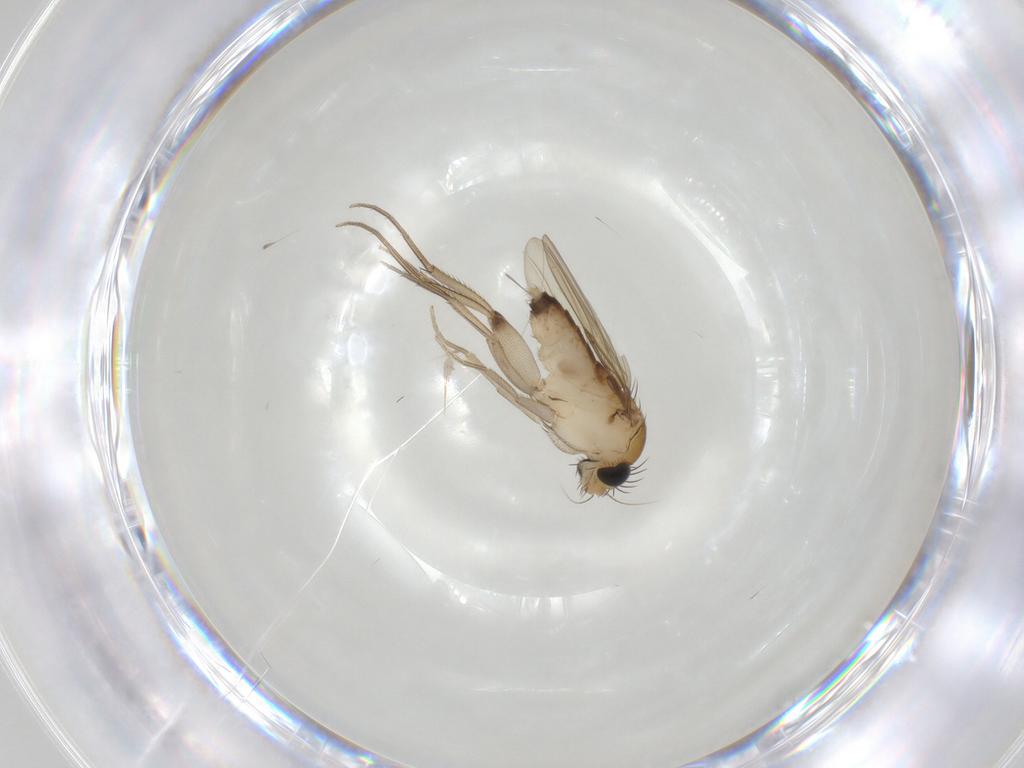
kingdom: Animalia
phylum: Arthropoda
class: Insecta
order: Diptera
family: Phoridae
